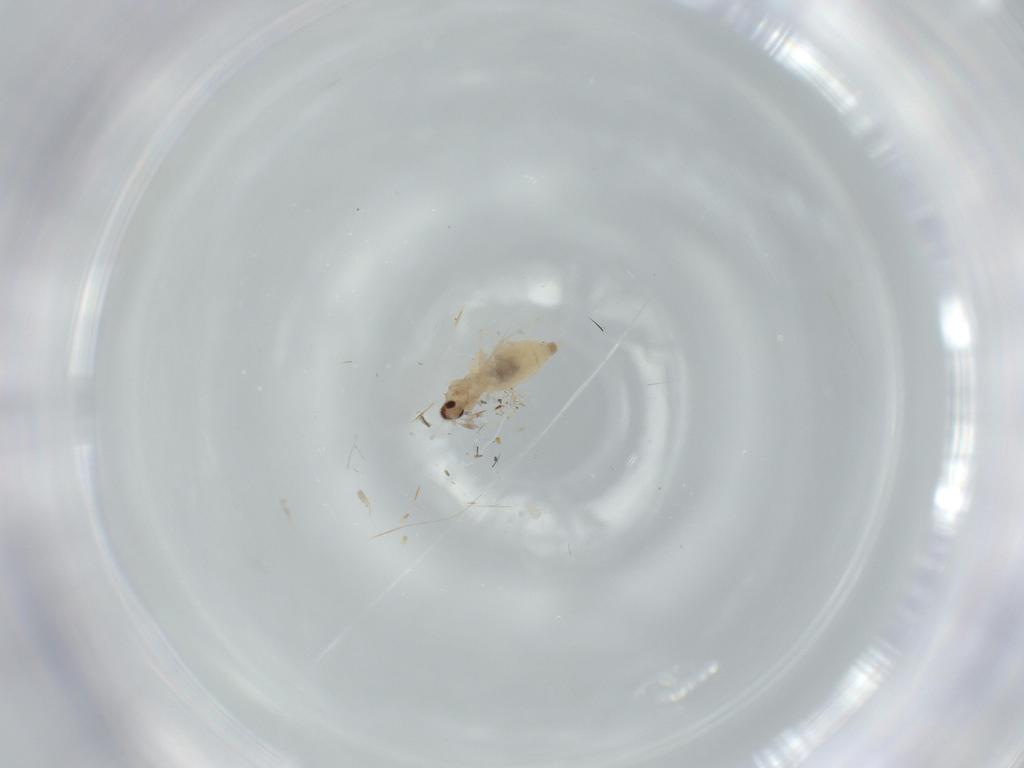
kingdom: Animalia
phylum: Arthropoda
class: Insecta
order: Diptera
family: Cecidomyiidae
